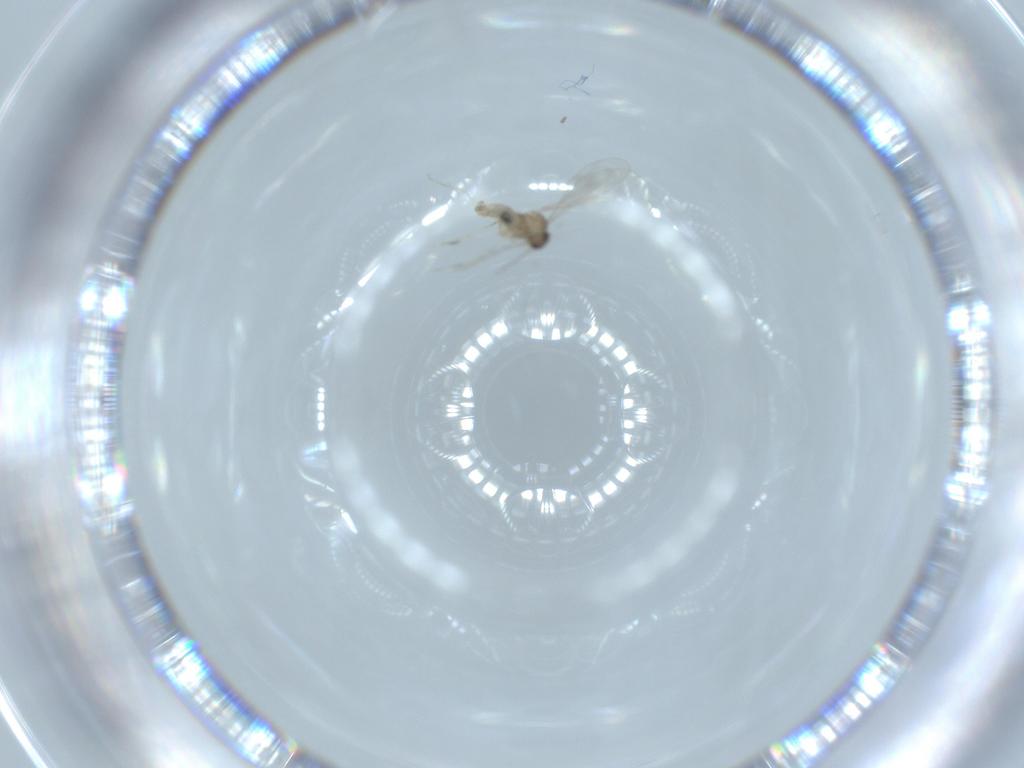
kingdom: Animalia
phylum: Arthropoda
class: Insecta
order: Diptera
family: Cecidomyiidae
